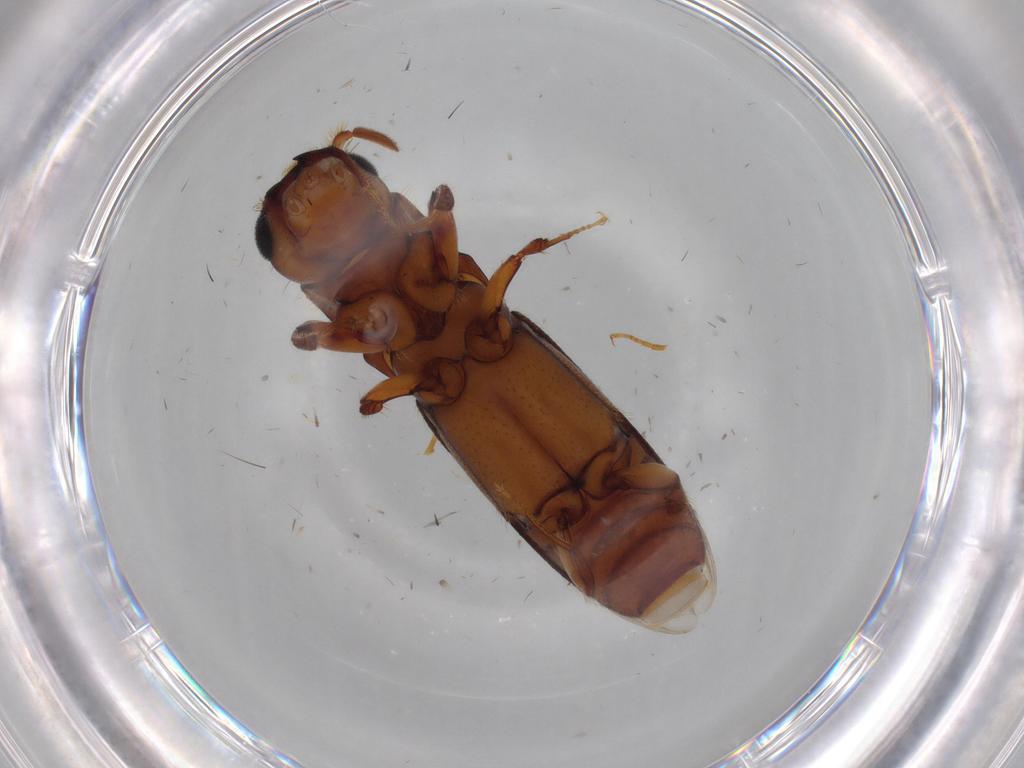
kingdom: Animalia
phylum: Arthropoda
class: Insecta
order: Coleoptera
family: Curculionidae
